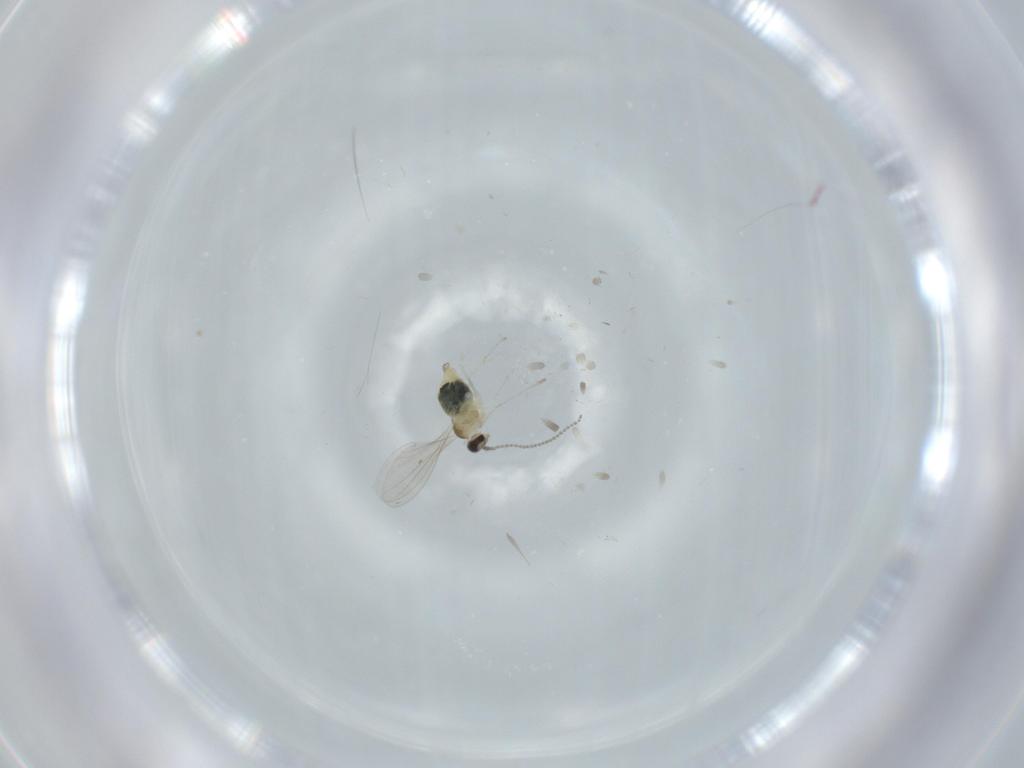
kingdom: Animalia
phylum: Arthropoda
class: Insecta
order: Diptera
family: Sciaridae
